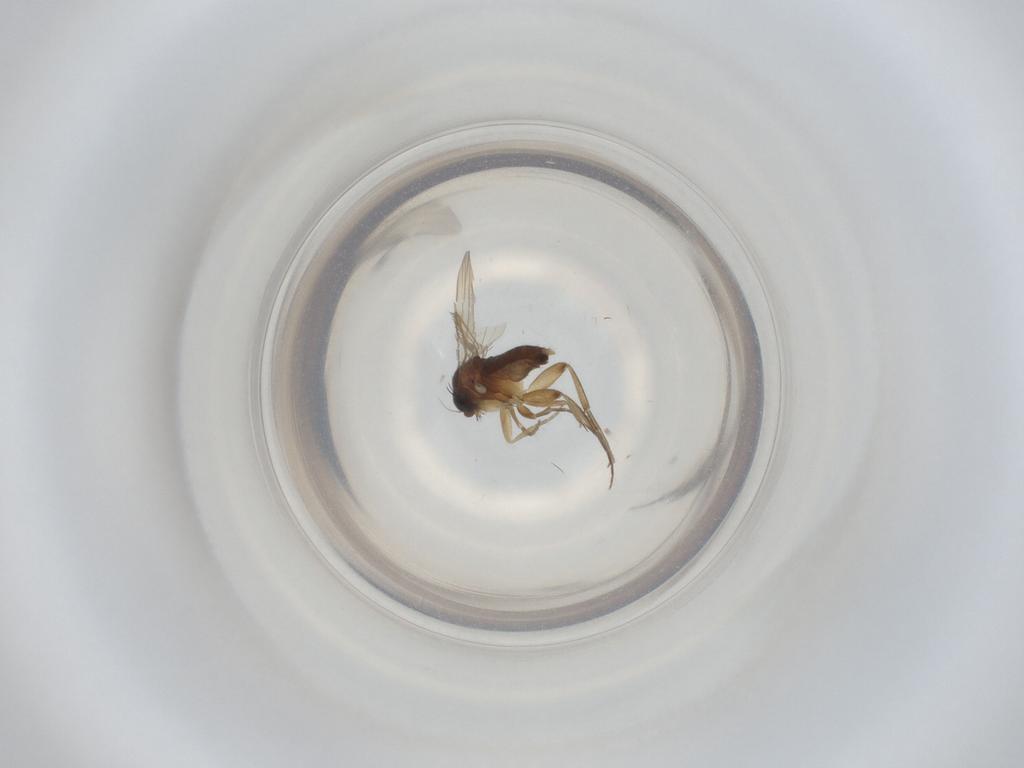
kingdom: Animalia
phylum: Arthropoda
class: Insecta
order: Diptera
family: Phoridae
